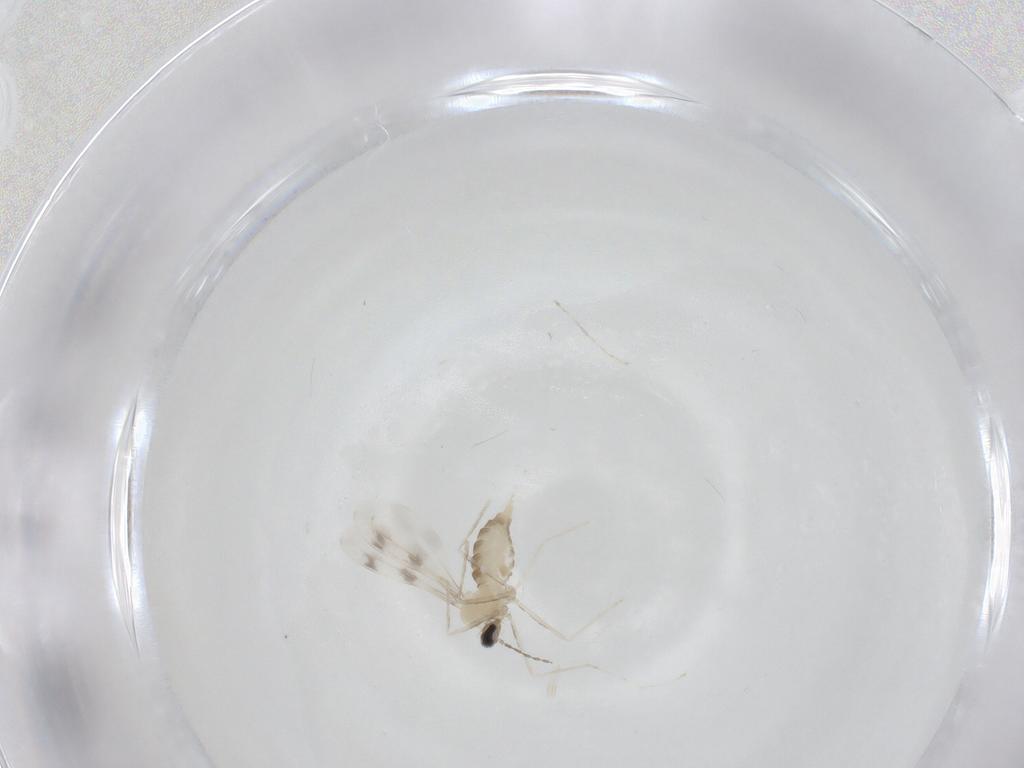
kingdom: Animalia
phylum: Arthropoda
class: Insecta
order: Diptera
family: Cecidomyiidae
